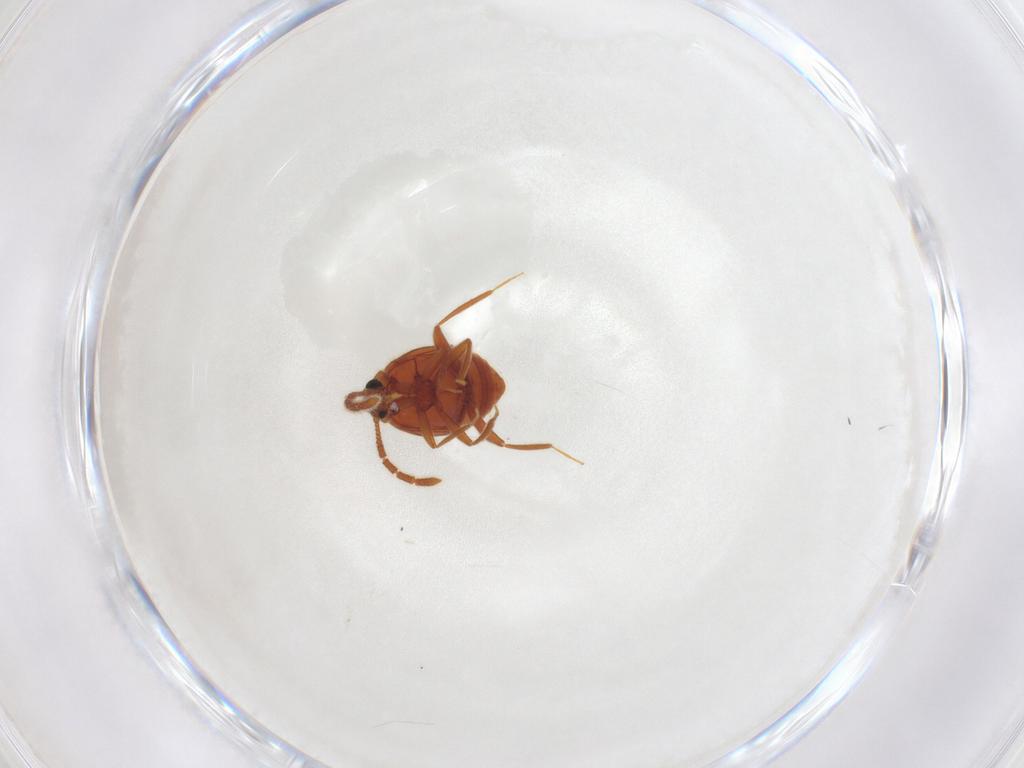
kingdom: Animalia
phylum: Arthropoda
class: Insecta
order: Coleoptera
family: Staphylinidae
